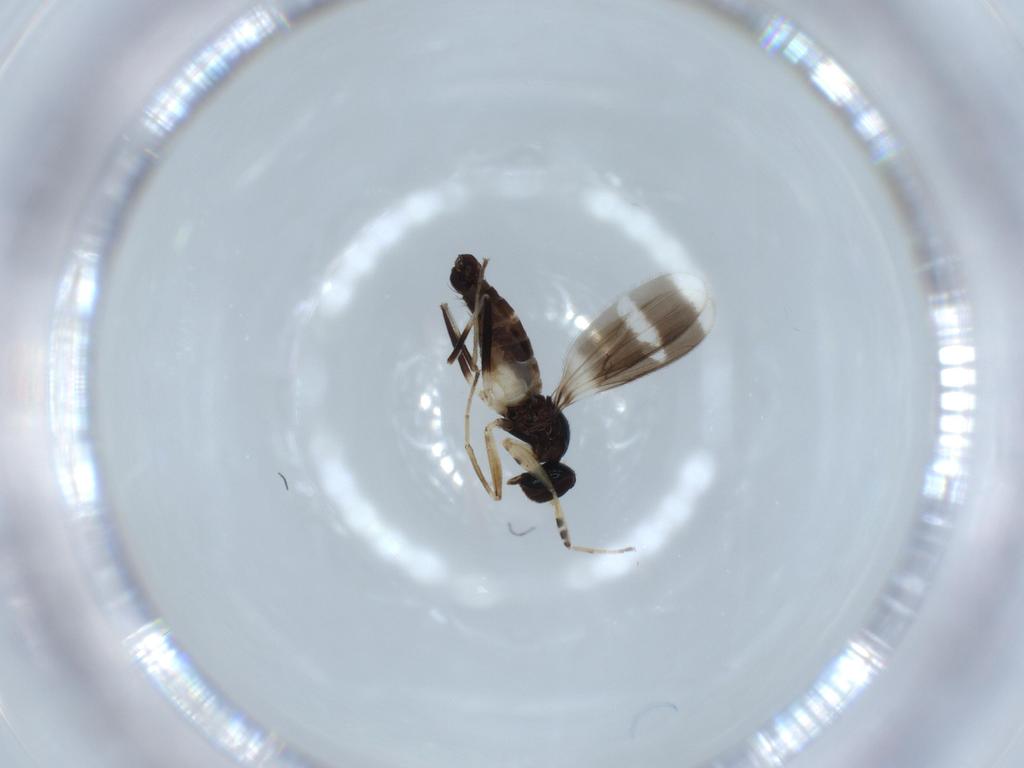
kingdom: Animalia
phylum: Arthropoda
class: Insecta
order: Diptera
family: Hybotidae
